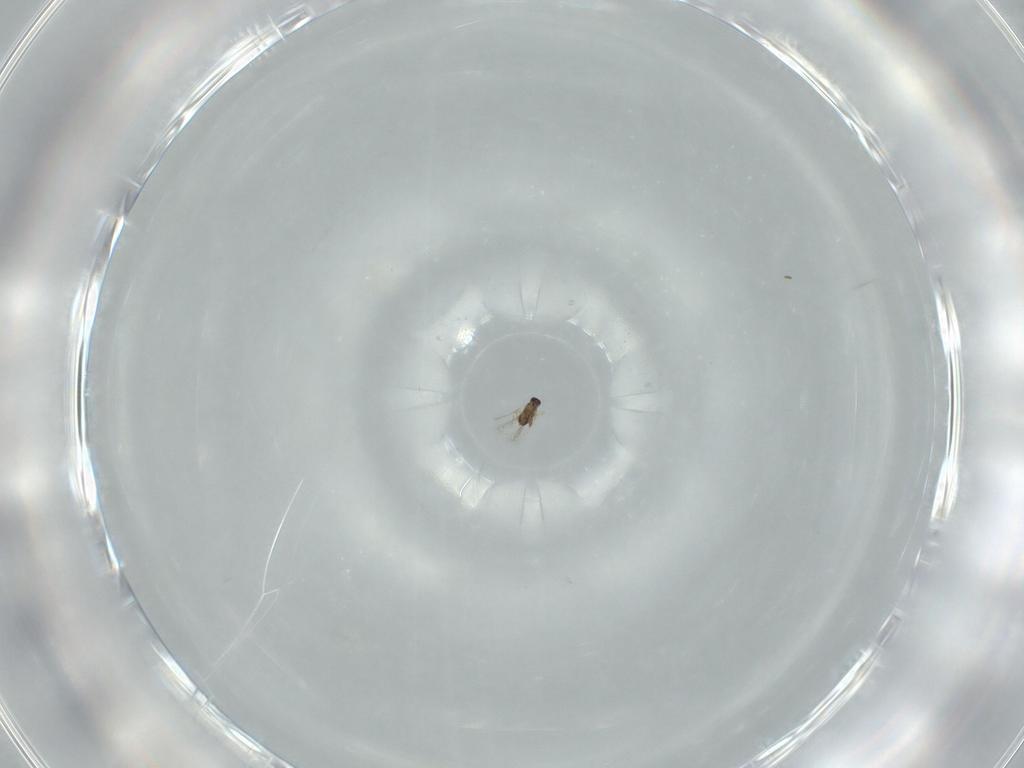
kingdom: Animalia
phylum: Arthropoda
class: Insecta
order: Hymenoptera
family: Mymaridae
